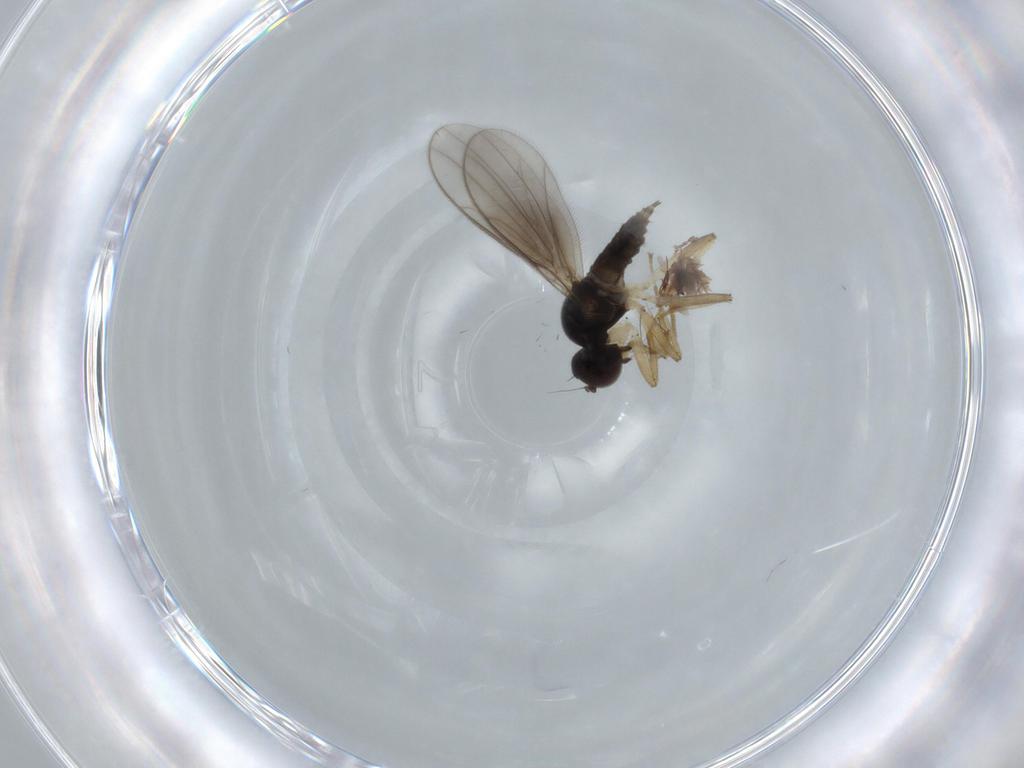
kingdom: Animalia
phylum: Arthropoda
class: Insecta
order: Diptera
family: Hybotidae
